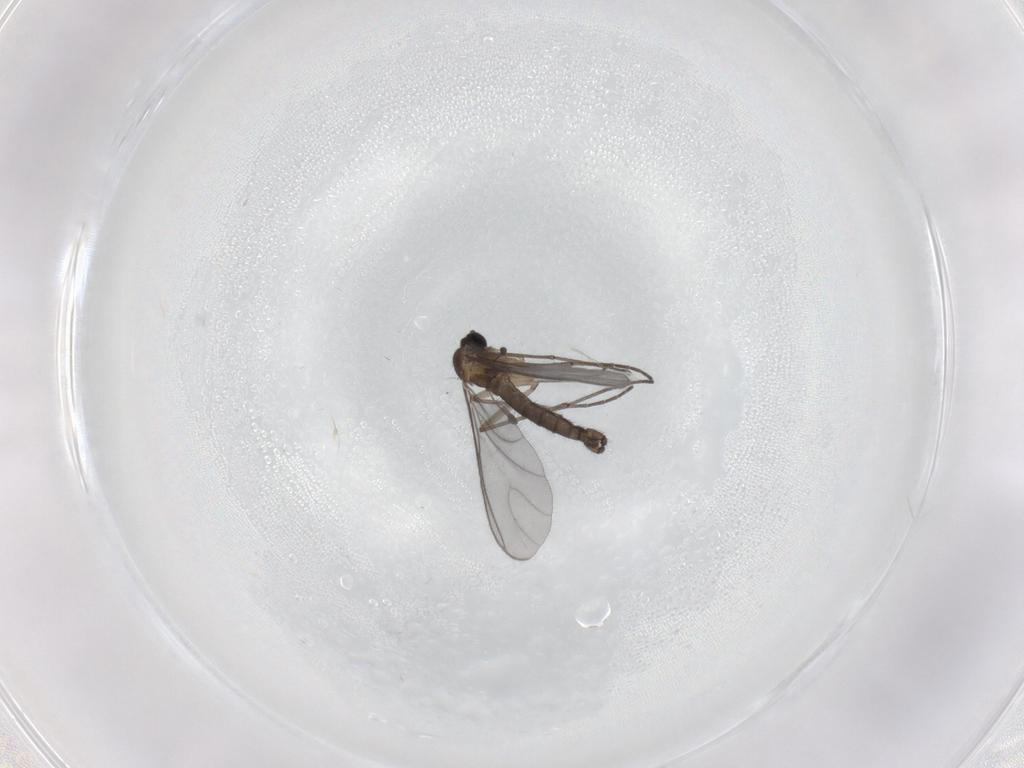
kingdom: Animalia
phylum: Arthropoda
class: Insecta
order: Diptera
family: Sciaridae
